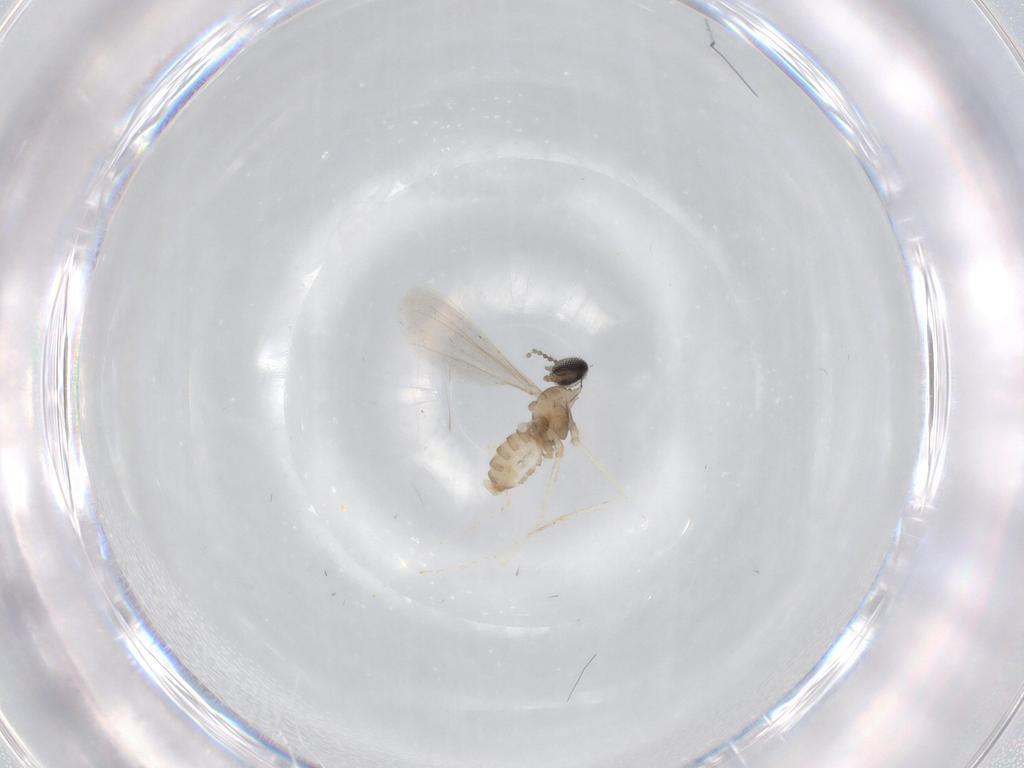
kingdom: Animalia
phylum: Arthropoda
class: Insecta
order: Diptera
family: Cecidomyiidae
